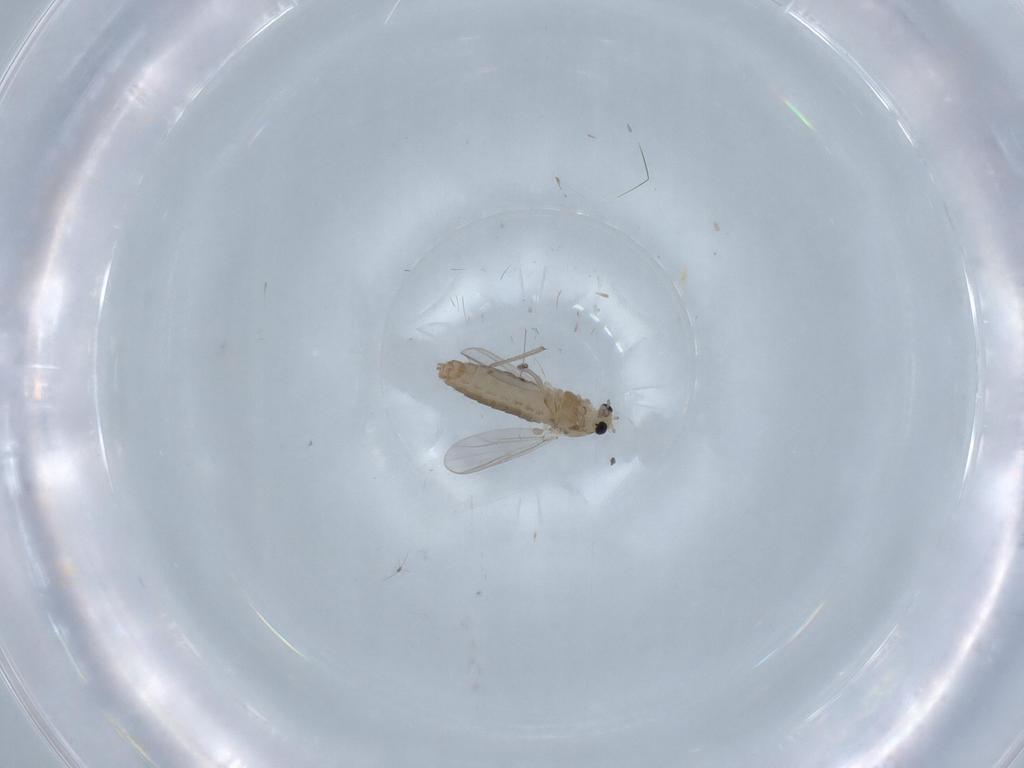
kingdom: Animalia
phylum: Arthropoda
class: Insecta
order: Diptera
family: Chironomidae
